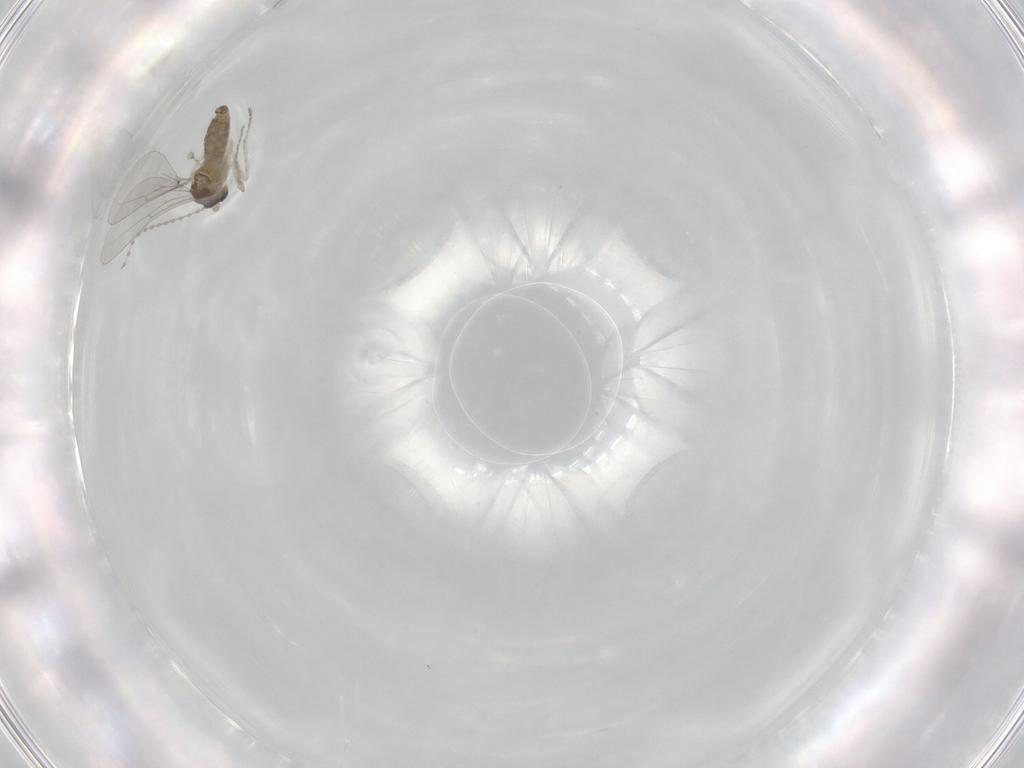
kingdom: Animalia
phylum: Arthropoda
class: Insecta
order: Diptera
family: Cecidomyiidae
